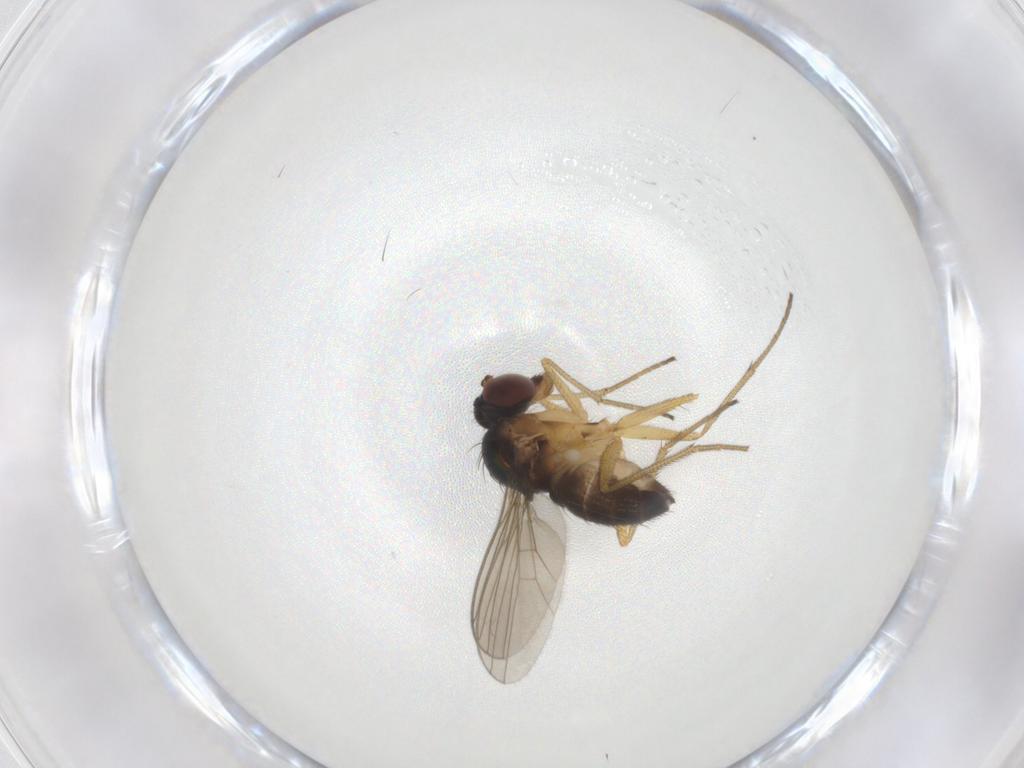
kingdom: Animalia
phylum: Arthropoda
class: Insecta
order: Diptera
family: Dolichopodidae
